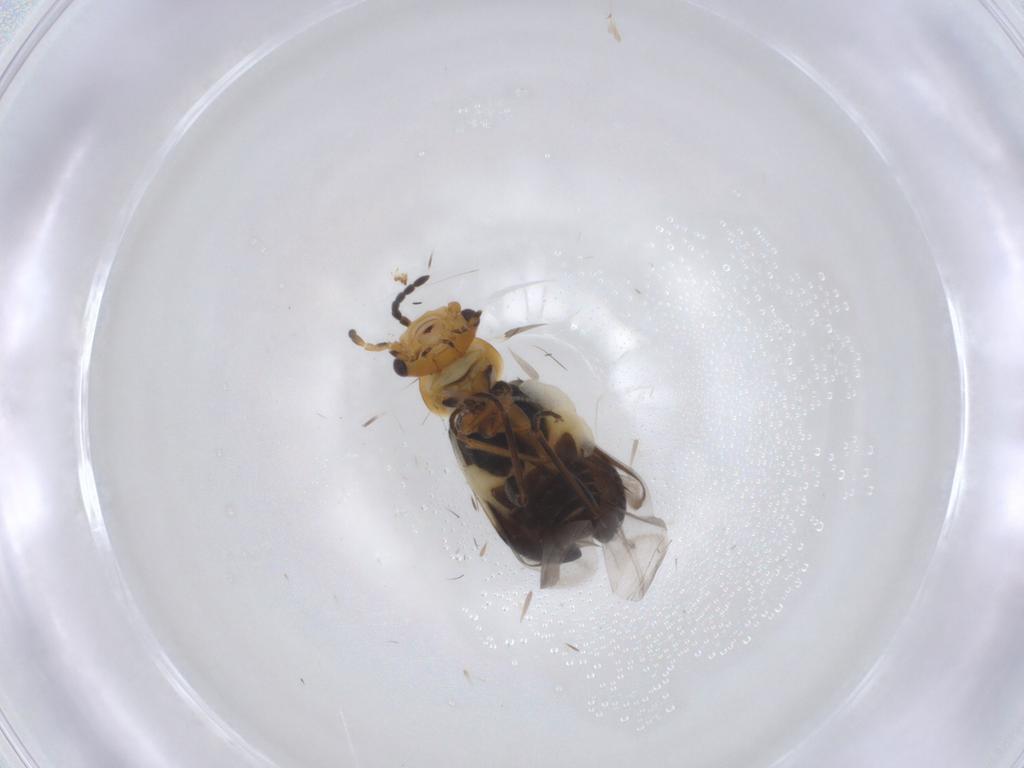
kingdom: Animalia
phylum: Arthropoda
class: Insecta
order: Coleoptera
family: Melyridae
